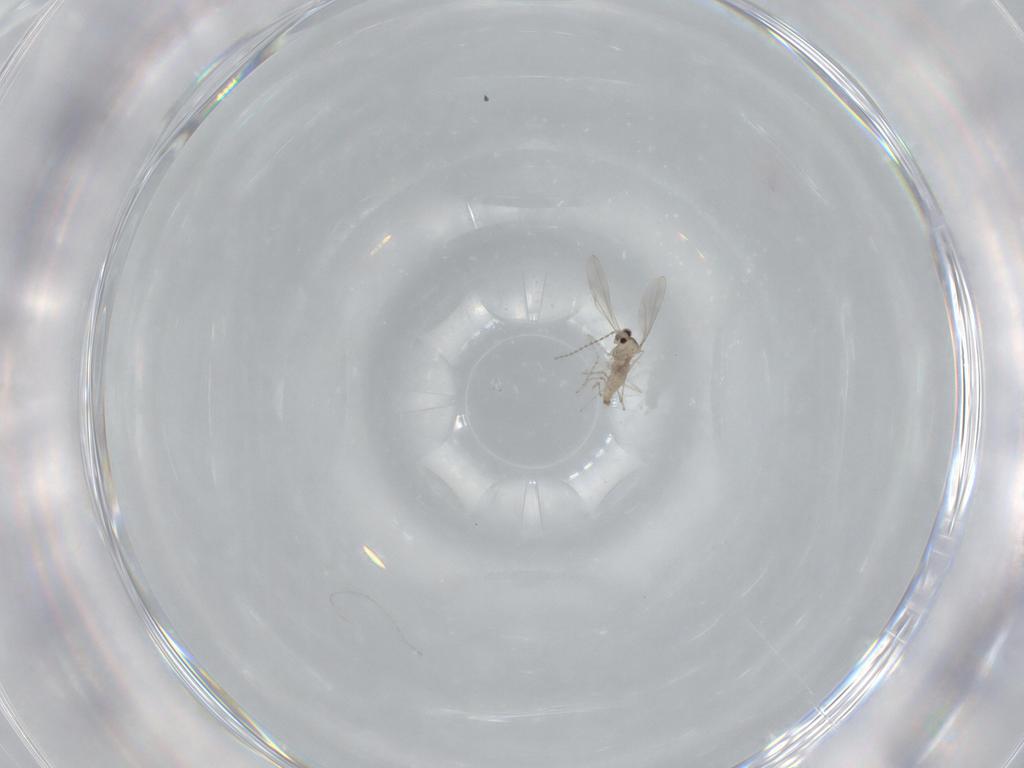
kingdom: Animalia
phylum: Arthropoda
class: Insecta
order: Diptera
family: Cecidomyiidae
